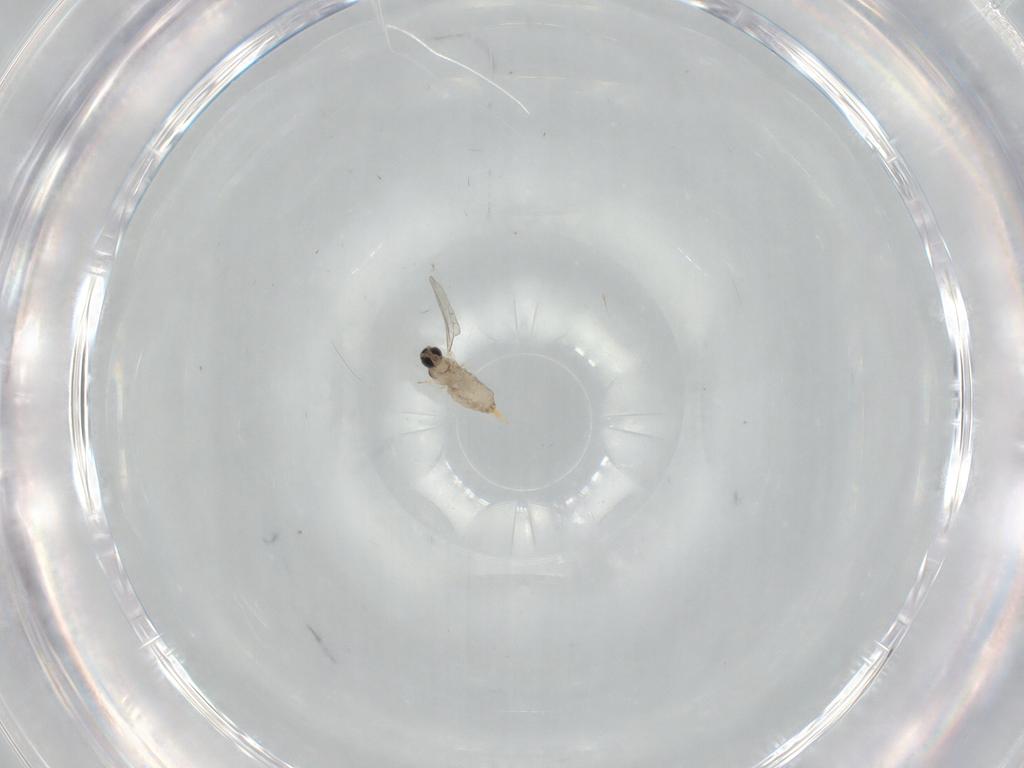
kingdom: Animalia
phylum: Arthropoda
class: Insecta
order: Diptera
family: Cecidomyiidae
